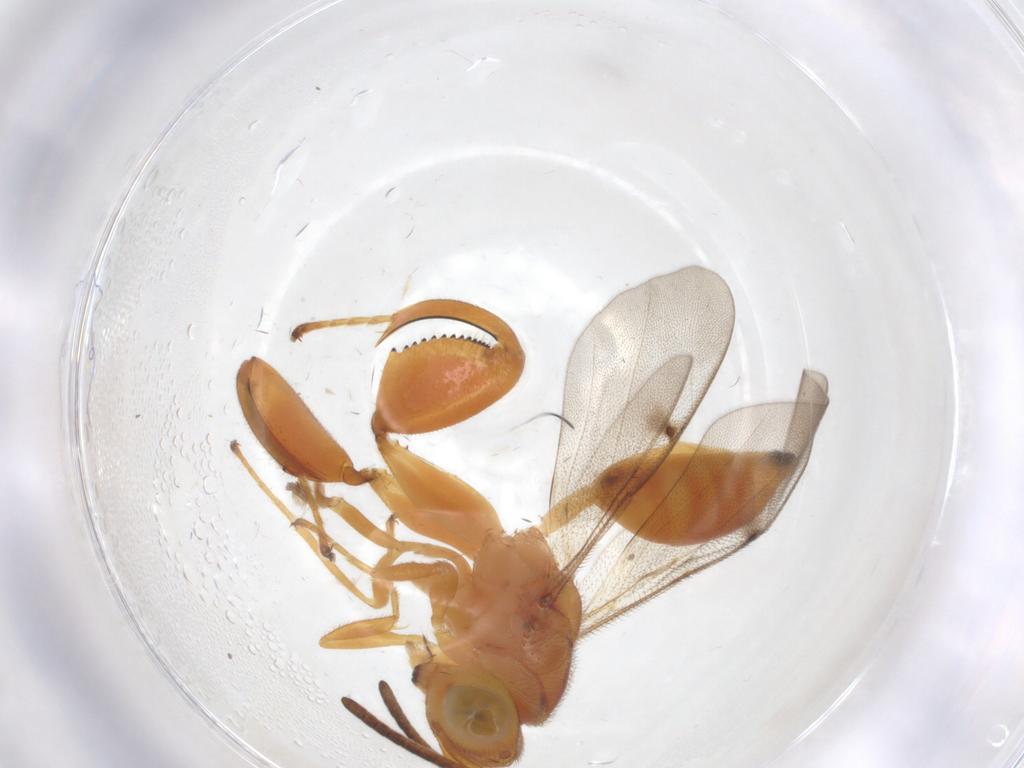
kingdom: Animalia
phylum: Arthropoda
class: Insecta
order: Hymenoptera
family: Chalcididae
